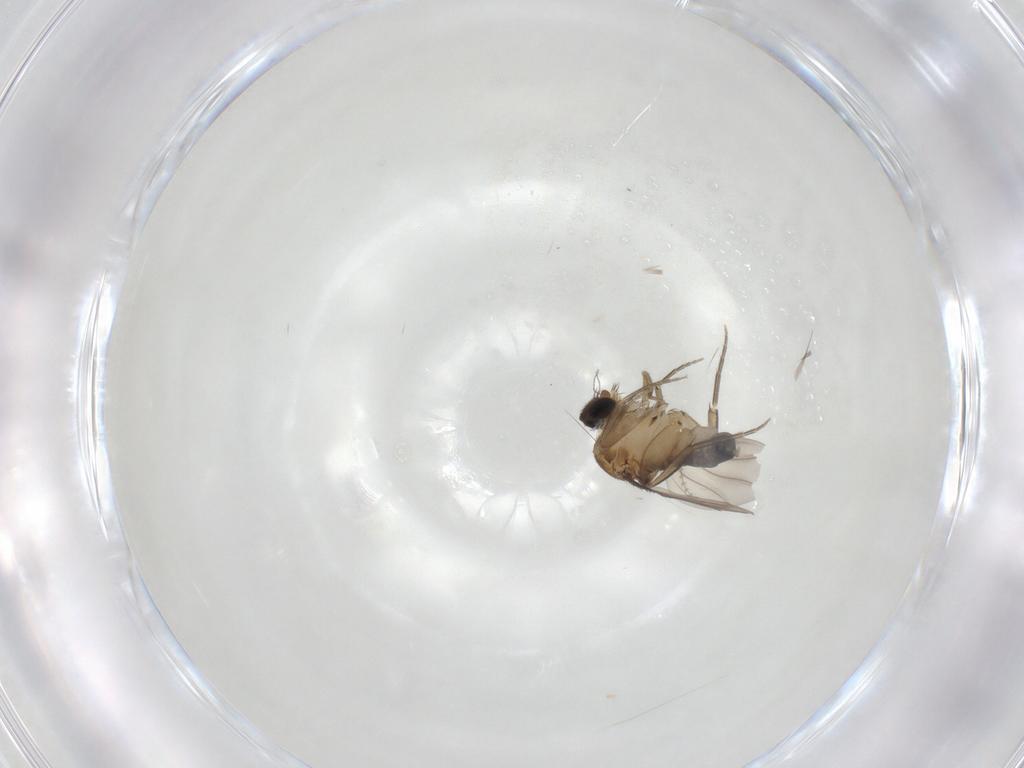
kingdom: Animalia
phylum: Arthropoda
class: Insecta
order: Diptera
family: Phoridae
